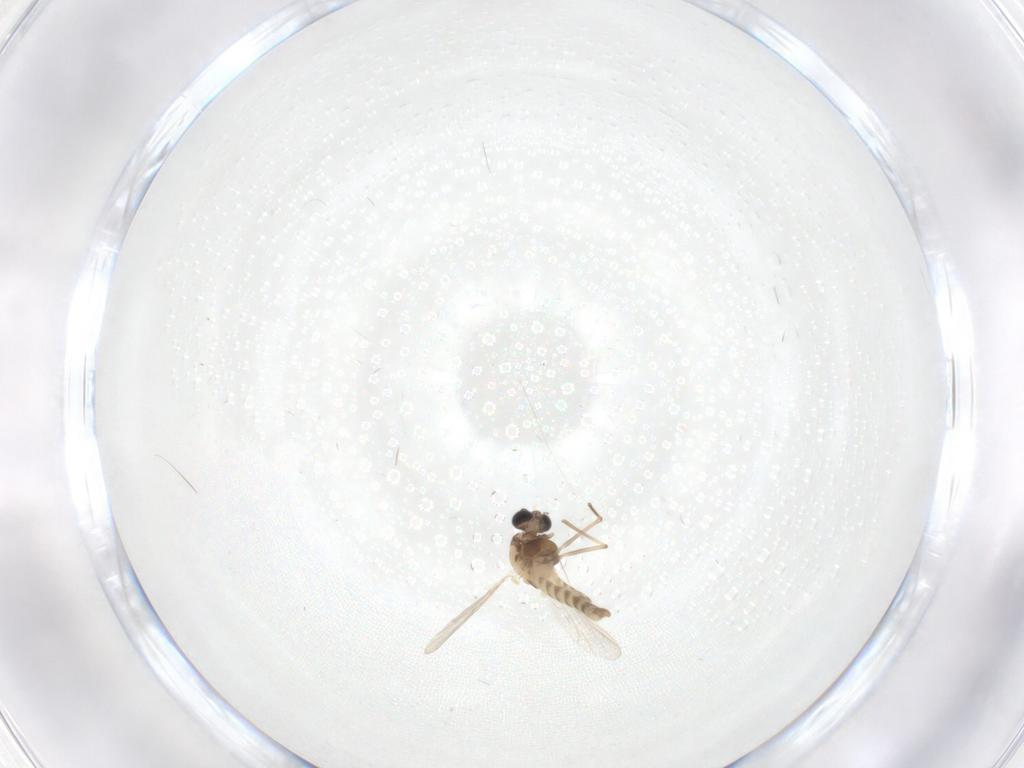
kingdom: Animalia
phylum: Arthropoda
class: Insecta
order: Diptera
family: Chironomidae
